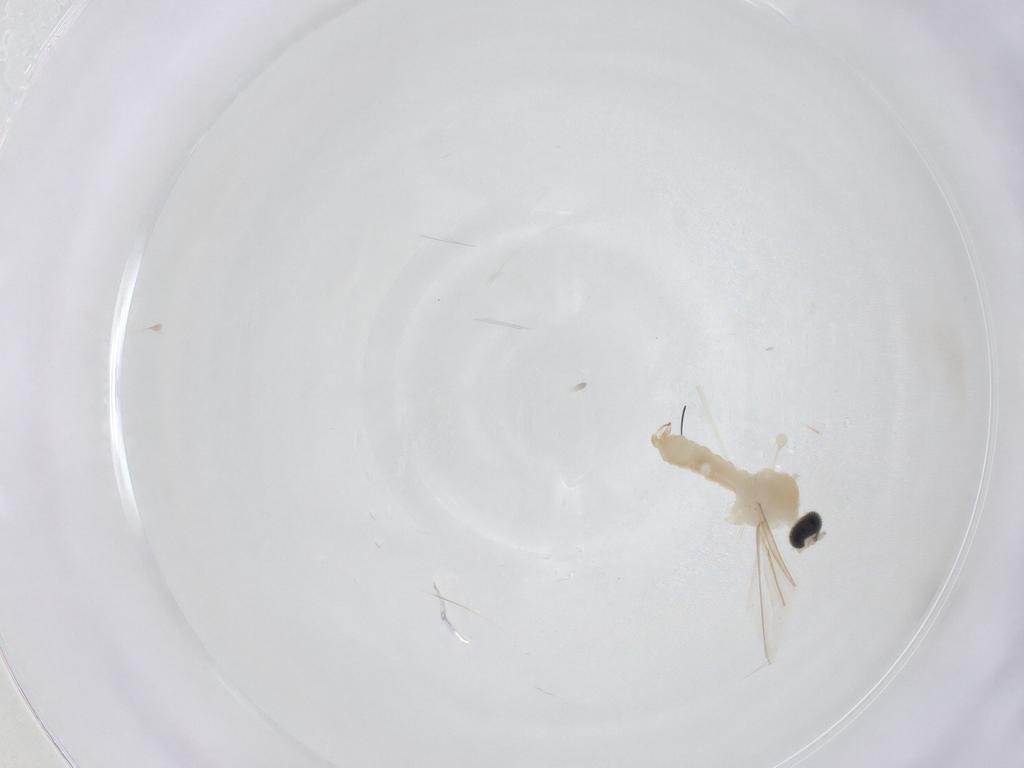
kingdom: Animalia
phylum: Arthropoda
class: Insecta
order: Diptera
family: Cecidomyiidae
